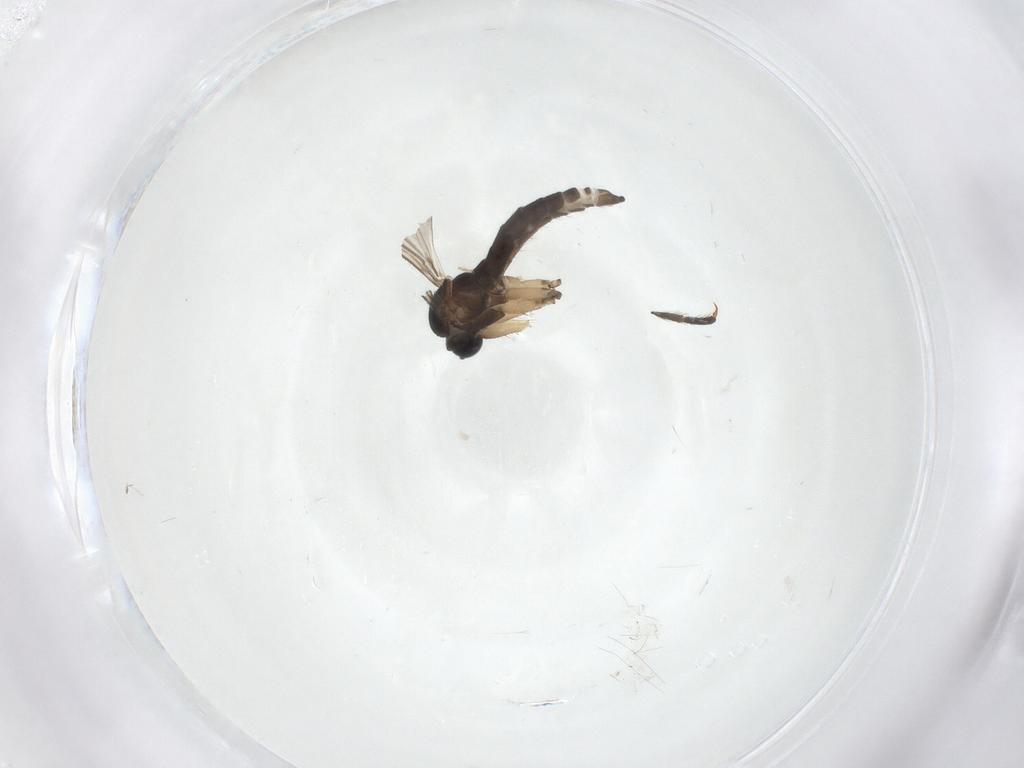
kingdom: Animalia
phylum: Arthropoda
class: Insecta
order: Diptera
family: Sciaridae
